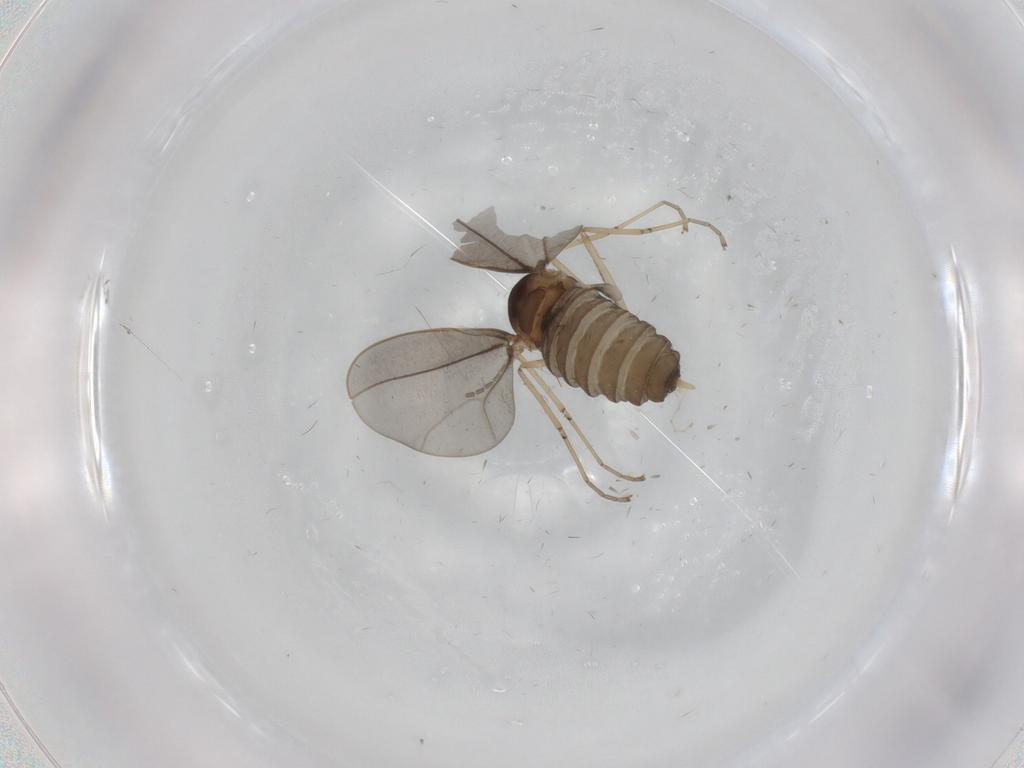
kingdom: Animalia
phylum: Arthropoda
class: Insecta
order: Diptera
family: Cecidomyiidae
